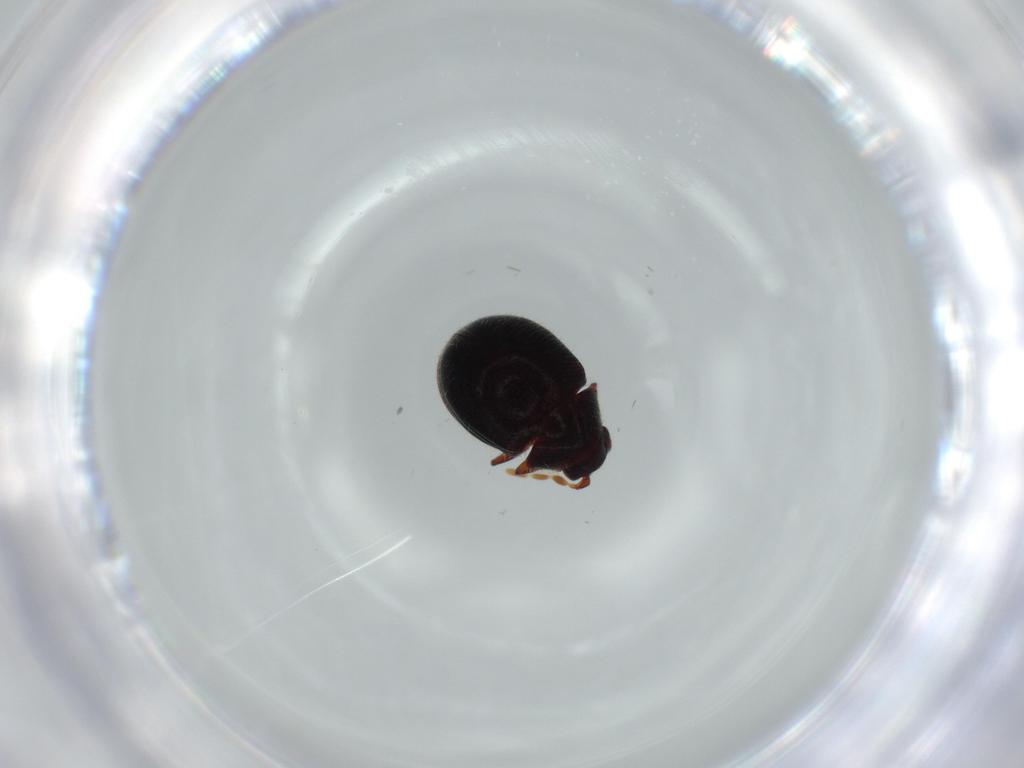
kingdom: Animalia
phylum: Arthropoda
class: Insecta
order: Coleoptera
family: Ptinidae
